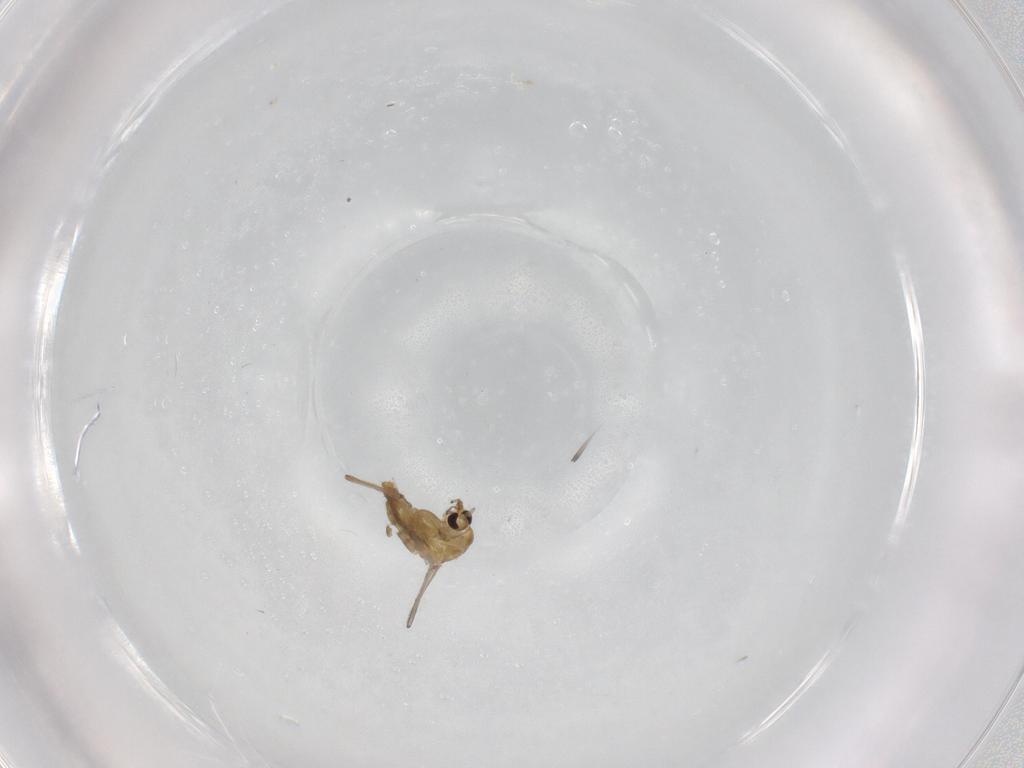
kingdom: Animalia
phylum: Arthropoda
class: Insecta
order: Diptera
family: Chironomidae
